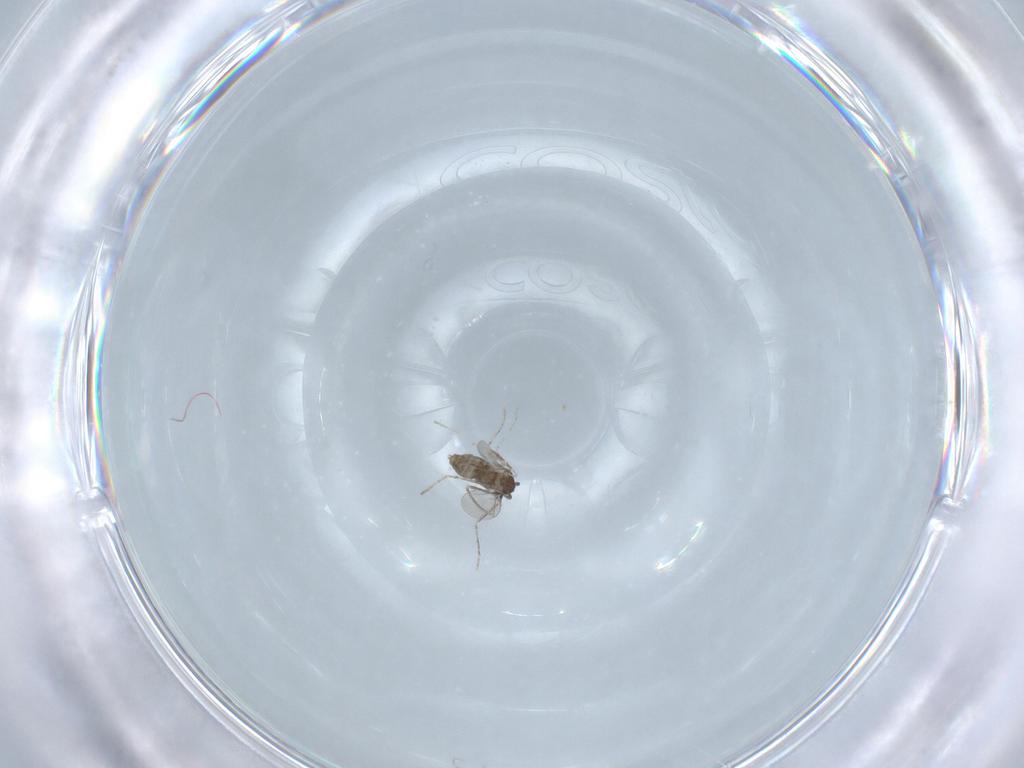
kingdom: Animalia
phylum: Arthropoda
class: Insecta
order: Diptera
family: Cecidomyiidae
